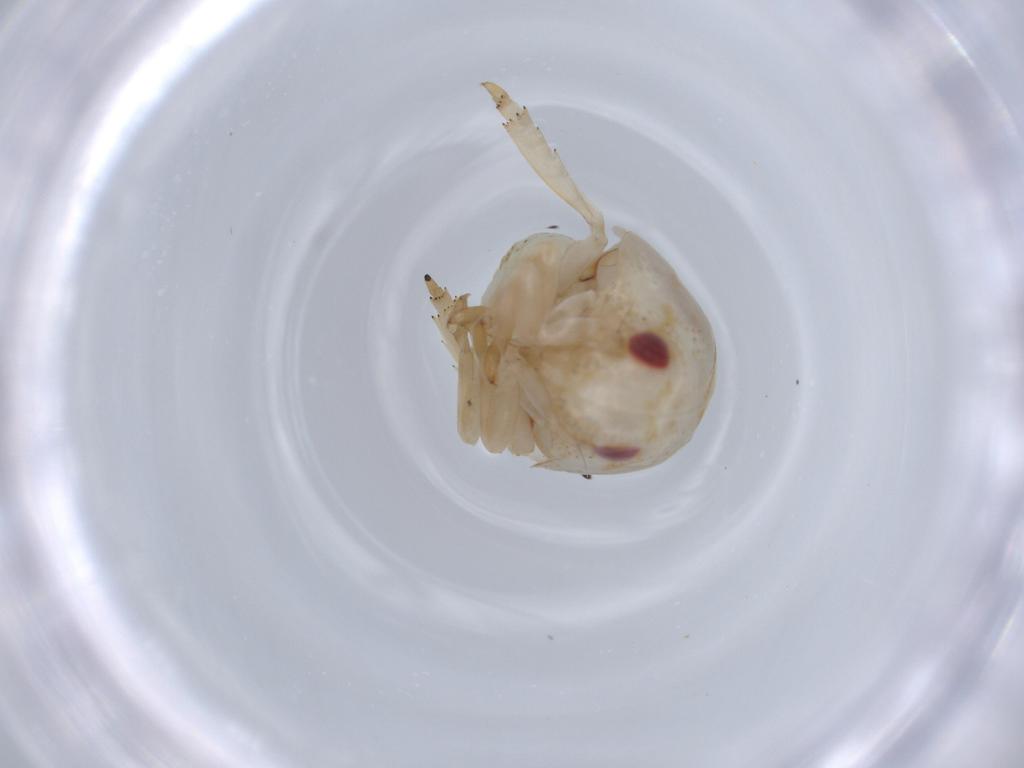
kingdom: Animalia
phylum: Arthropoda
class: Insecta
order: Hemiptera
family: Acanaloniidae
